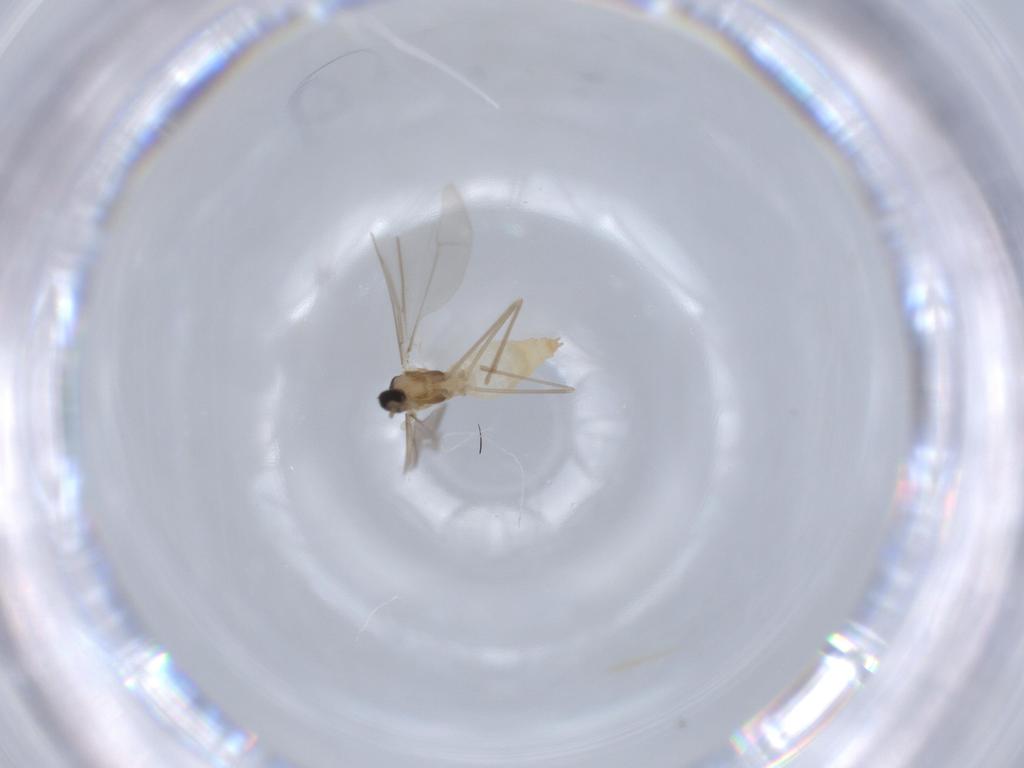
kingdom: Animalia
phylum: Arthropoda
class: Insecta
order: Diptera
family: Cecidomyiidae
